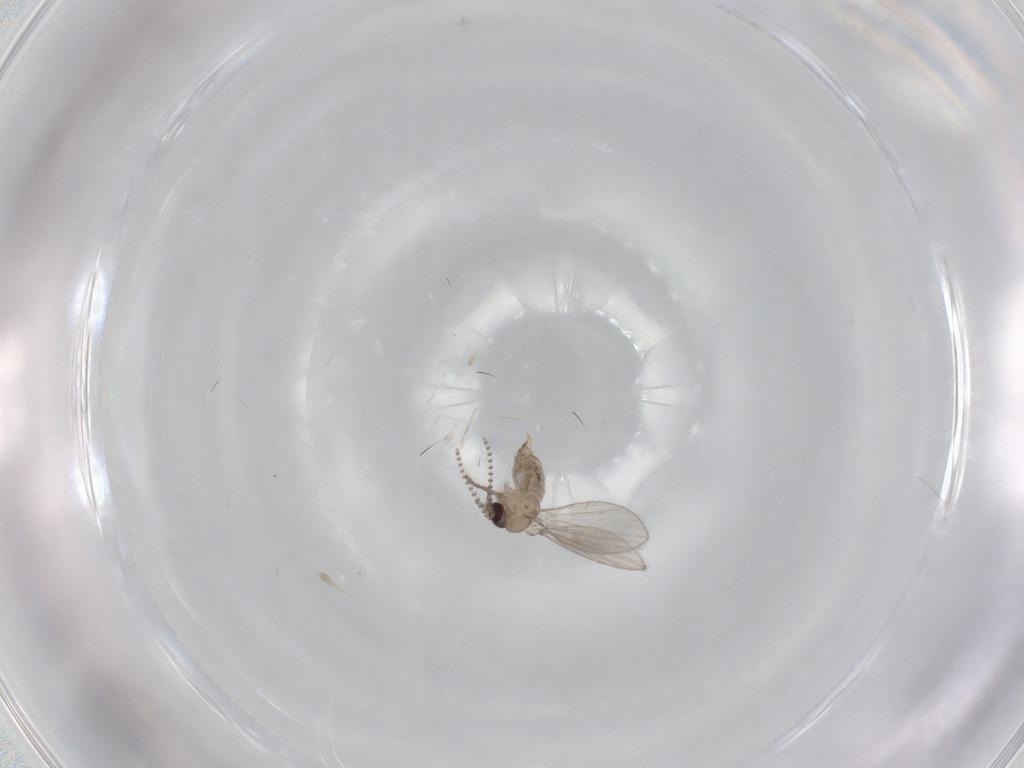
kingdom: Animalia
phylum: Arthropoda
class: Insecta
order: Diptera
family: Psychodidae
